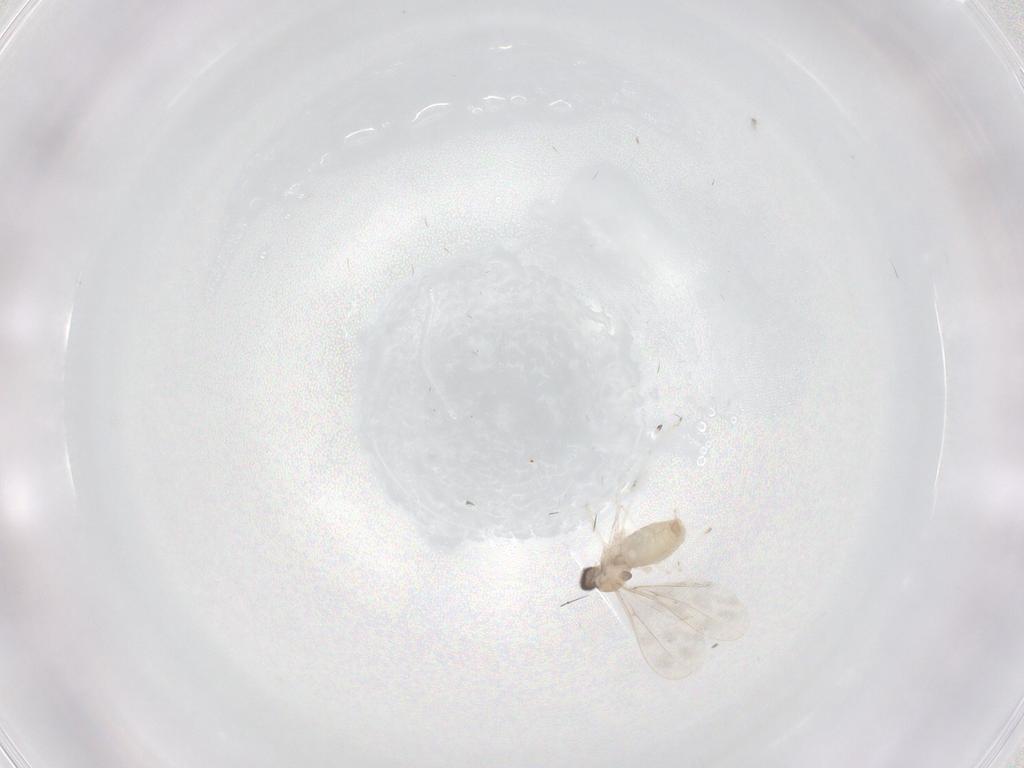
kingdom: Animalia
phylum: Arthropoda
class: Insecta
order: Diptera
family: Cecidomyiidae
